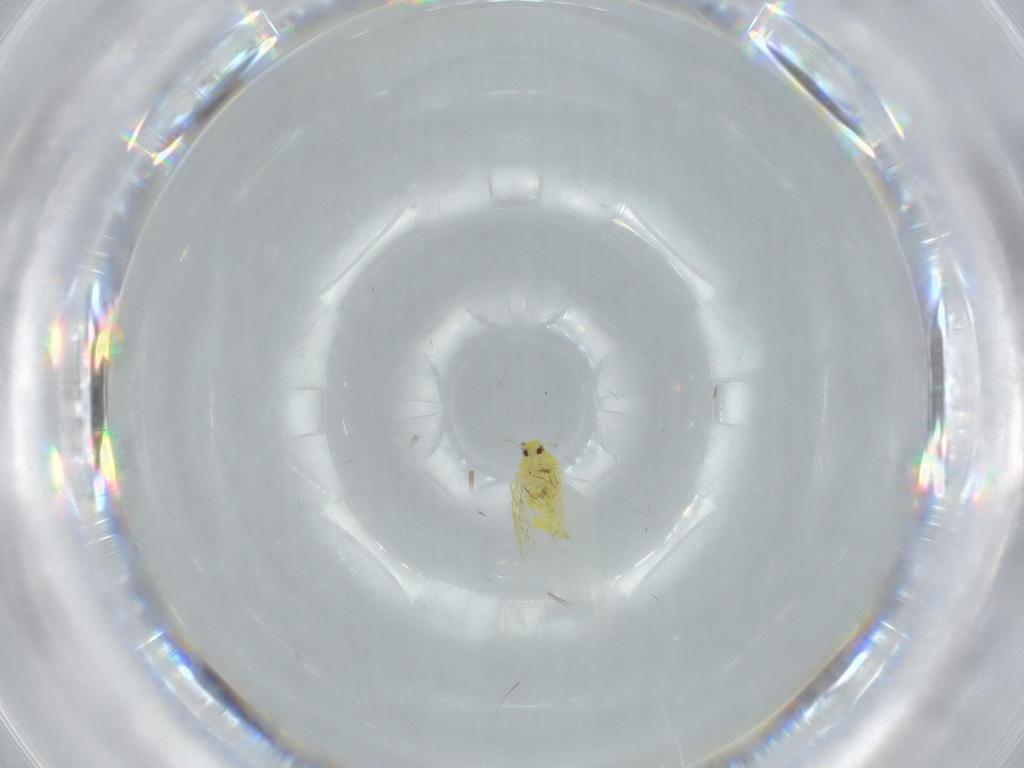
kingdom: Animalia
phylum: Arthropoda
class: Insecta
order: Hemiptera
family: Aleyrodidae
